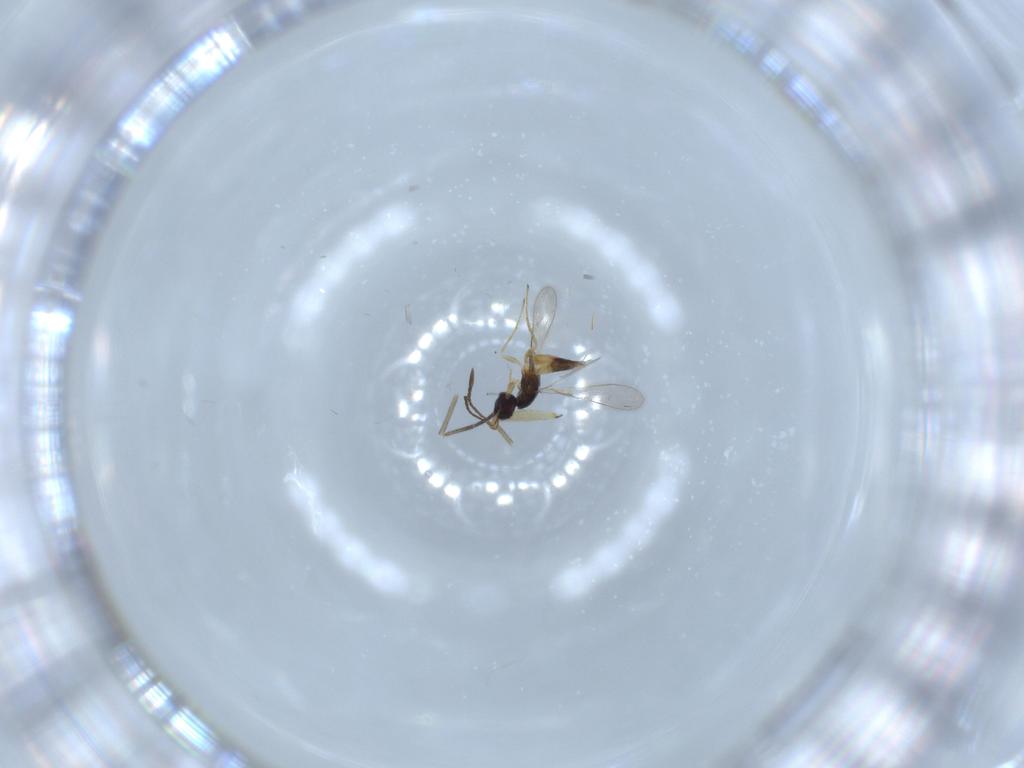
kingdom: Animalia
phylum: Arthropoda
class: Insecta
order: Hymenoptera
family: Mymaridae
